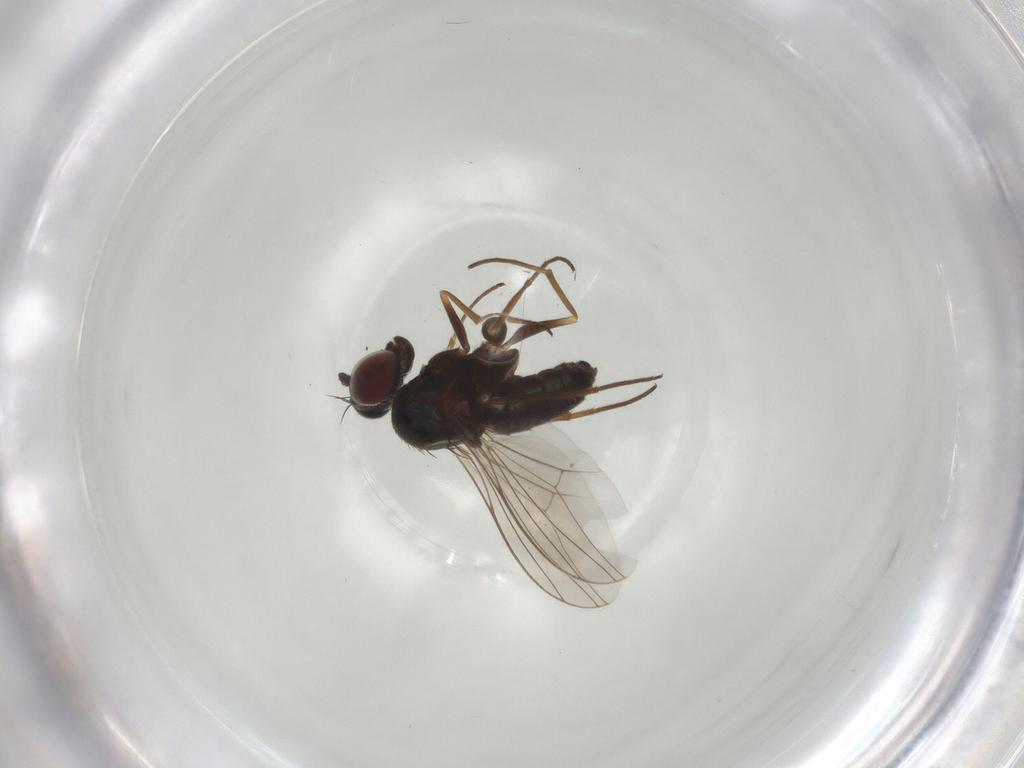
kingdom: Animalia
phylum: Arthropoda
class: Insecta
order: Diptera
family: Dolichopodidae
